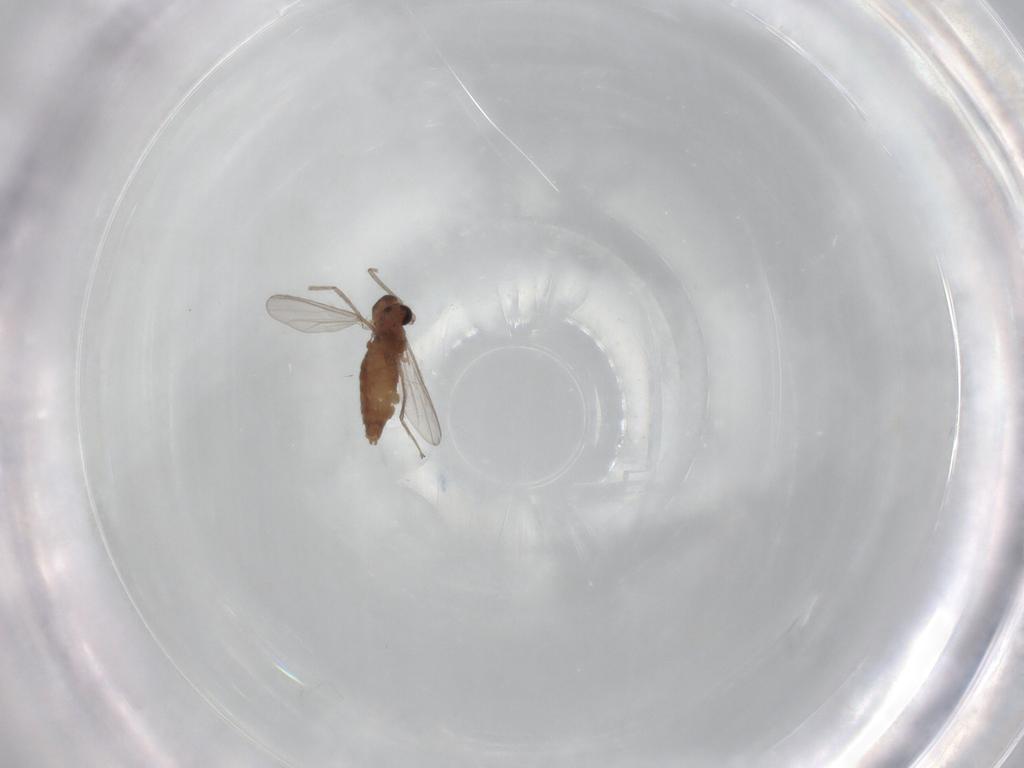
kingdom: Animalia
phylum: Arthropoda
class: Insecta
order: Diptera
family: Chironomidae
